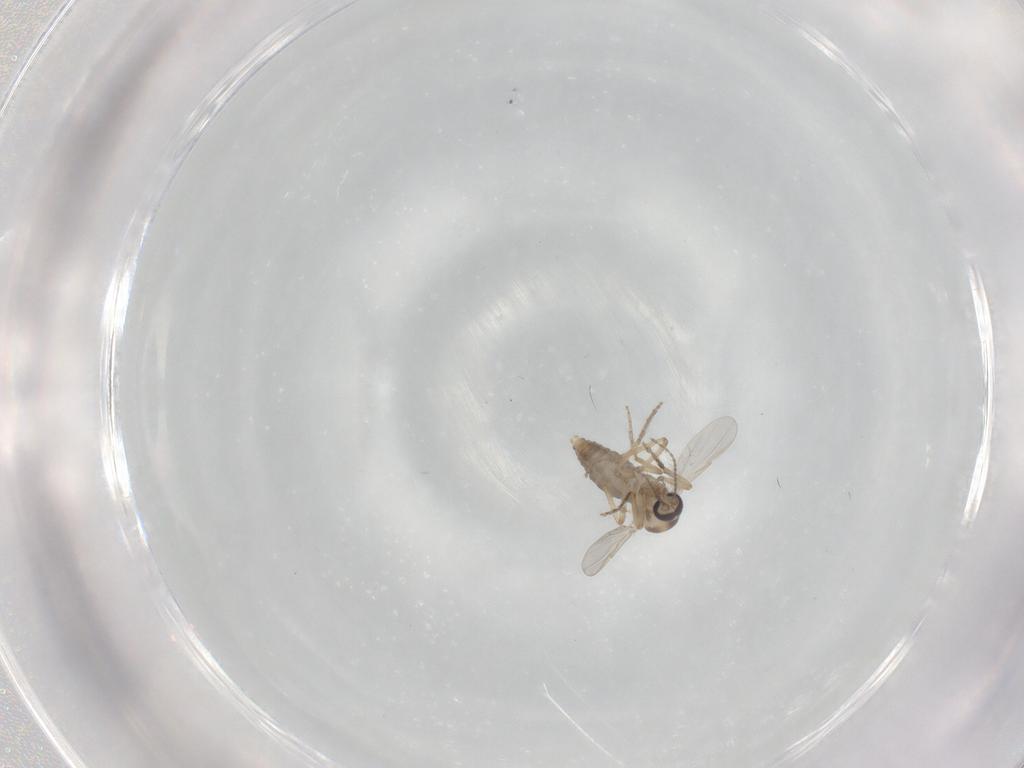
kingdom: Animalia
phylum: Arthropoda
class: Insecta
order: Diptera
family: Ceratopogonidae
